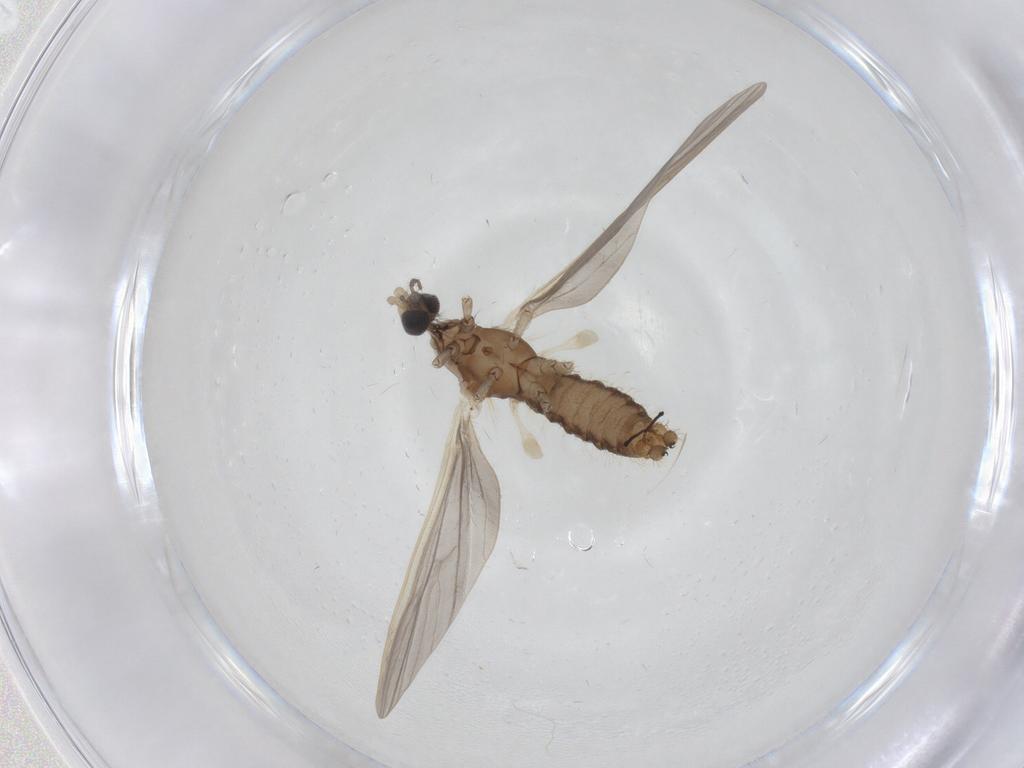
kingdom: Animalia
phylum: Arthropoda
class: Insecta
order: Diptera
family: Limoniidae
